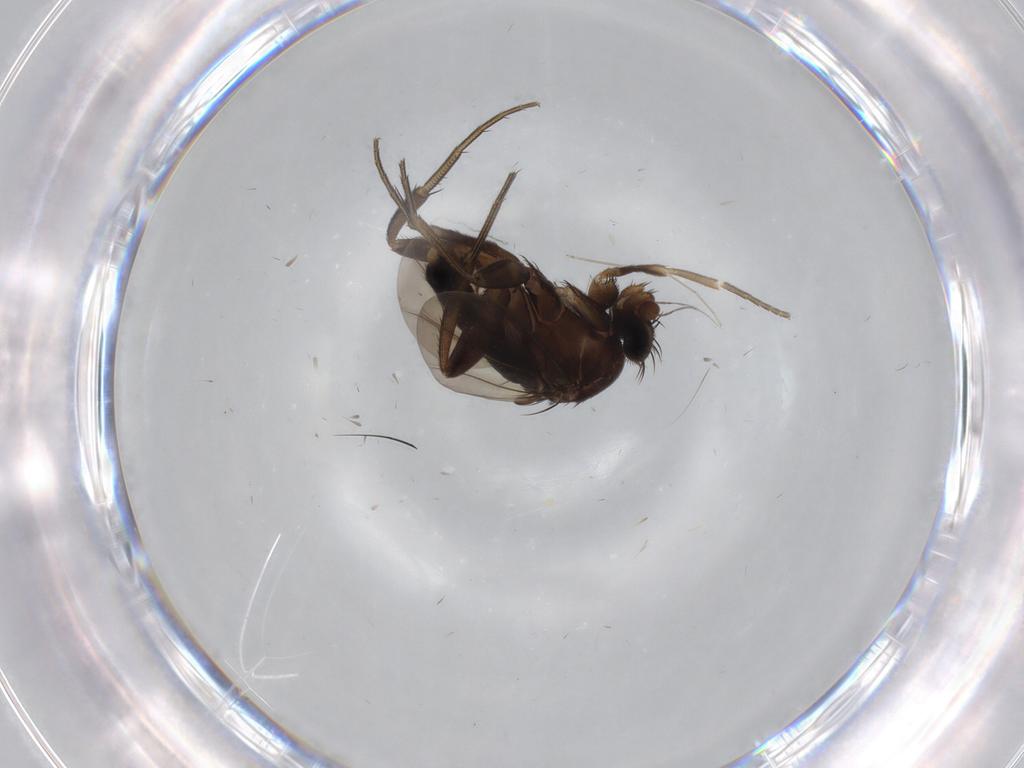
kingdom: Animalia
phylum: Arthropoda
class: Insecta
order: Diptera
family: Phoridae
